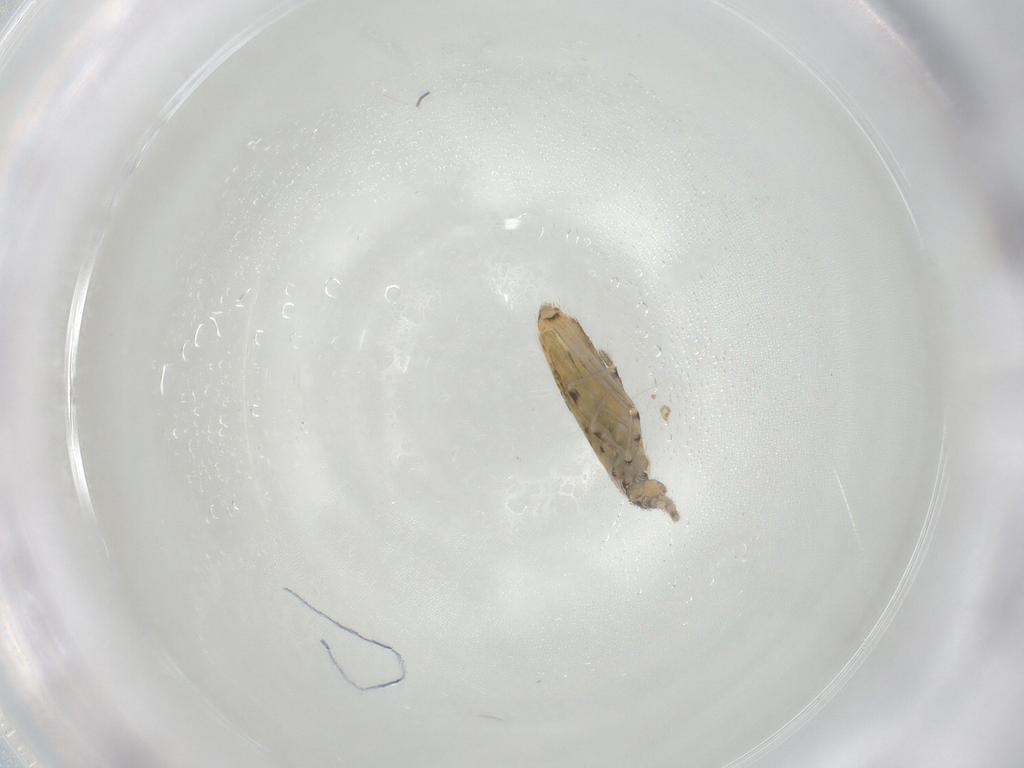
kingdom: Animalia
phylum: Arthropoda
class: Collembola
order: Entomobryomorpha
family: Entomobryidae
